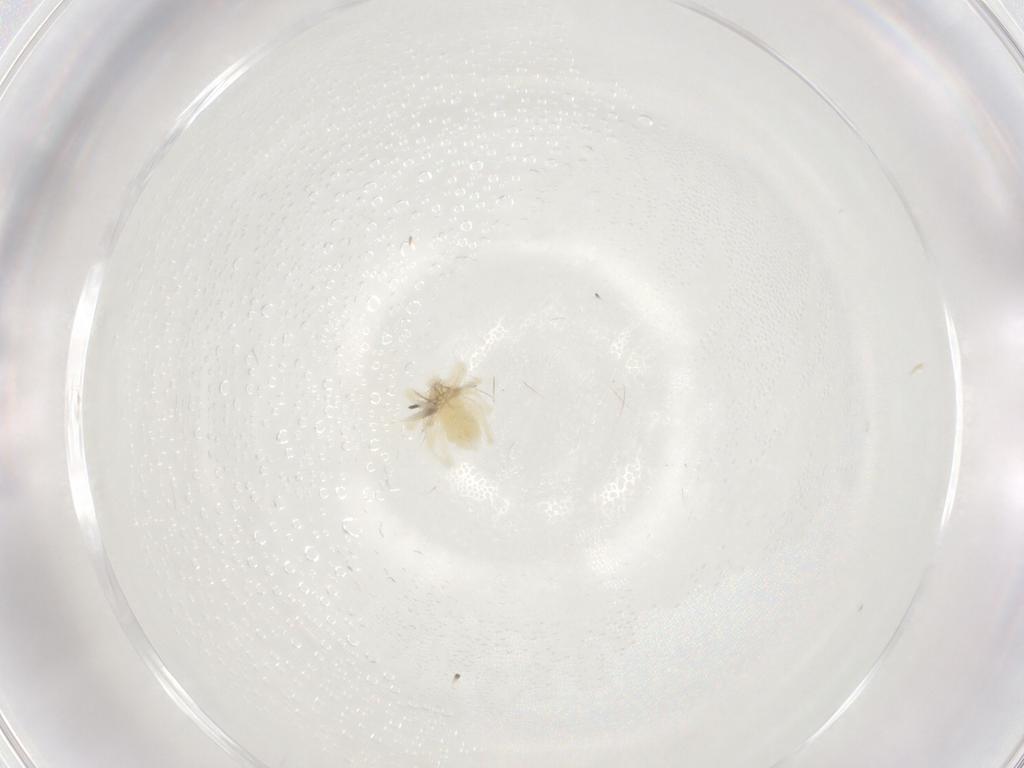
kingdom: Animalia
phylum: Arthropoda
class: Arachnida
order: Trombidiformes
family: Anystidae
